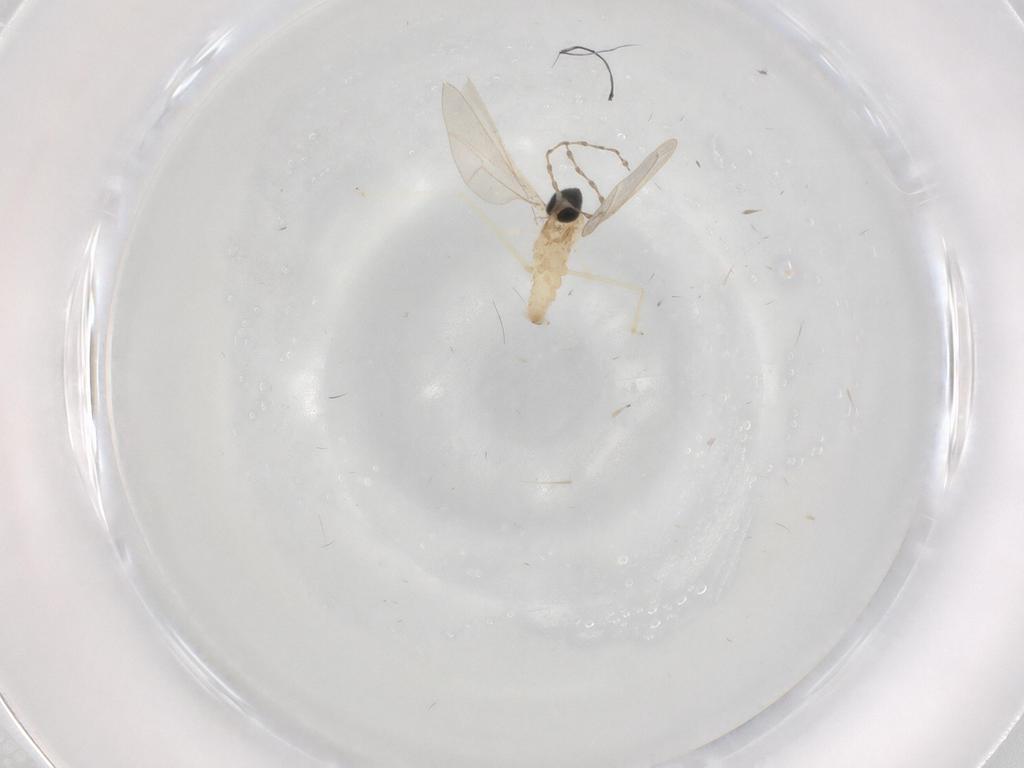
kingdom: Animalia
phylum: Arthropoda
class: Insecta
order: Diptera
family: Cecidomyiidae
